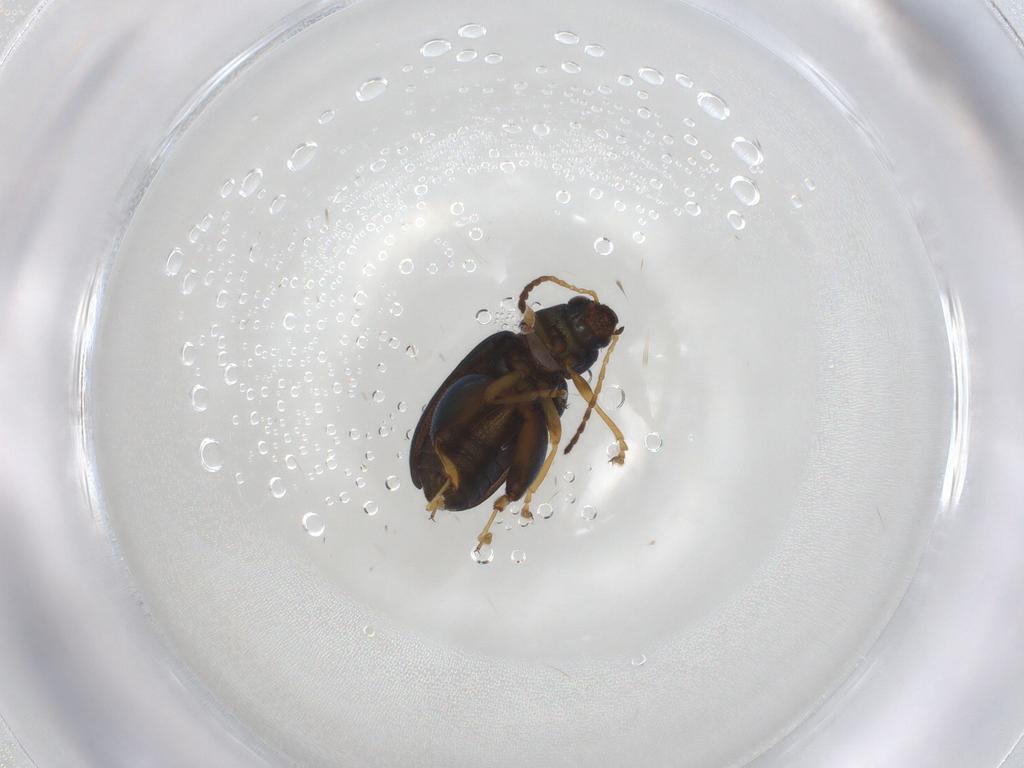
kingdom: Animalia
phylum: Arthropoda
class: Insecta
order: Coleoptera
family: Chrysomelidae
